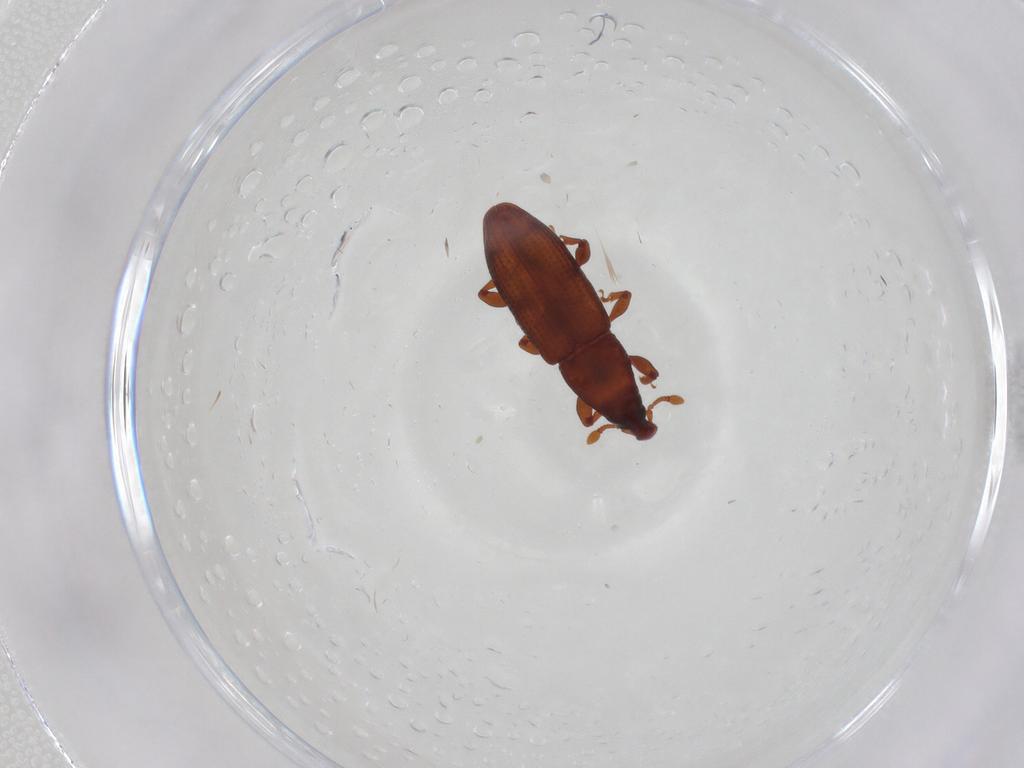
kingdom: Animalia
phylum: Arthropoda
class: Insecta
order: Coleoptera
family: Scarabaeidae
